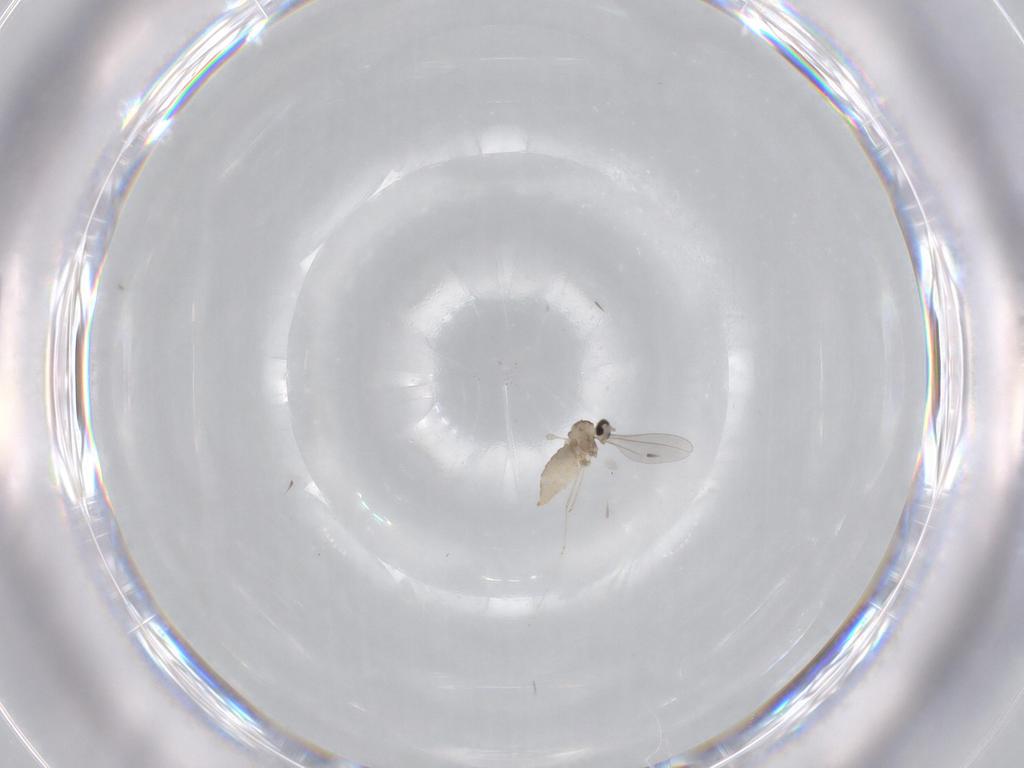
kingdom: Animalia
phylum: Arthropoda
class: Insecta
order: Diptera
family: Cecidomyiidae
